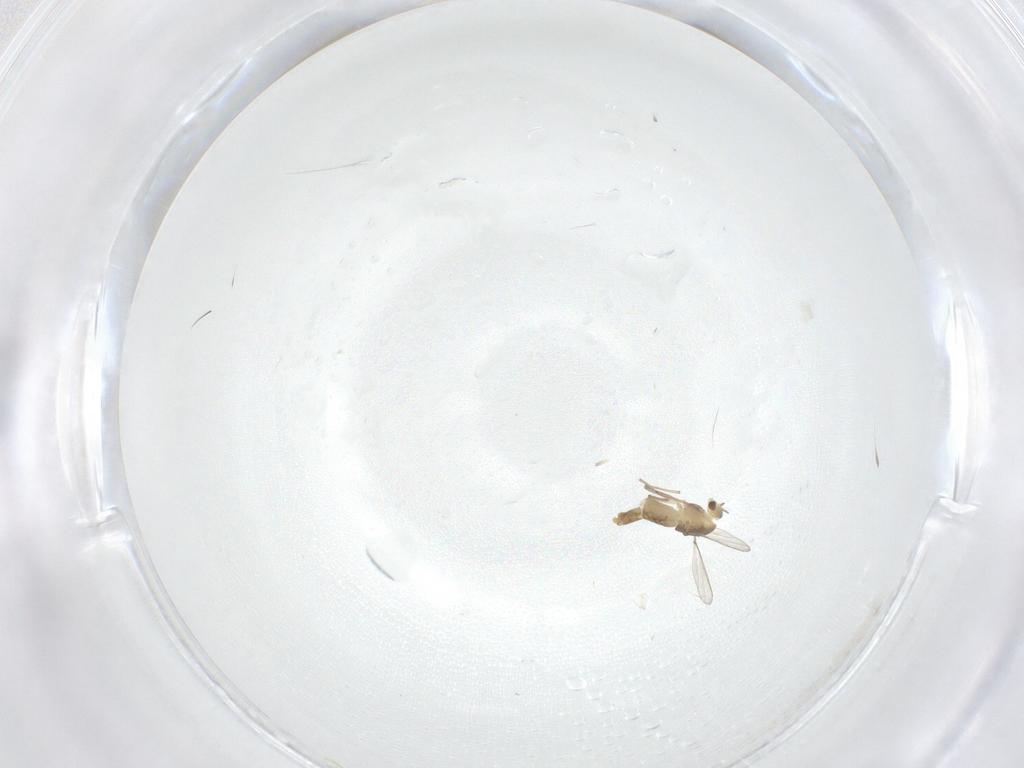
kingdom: Animalia
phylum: Arthropoda
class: Insecta
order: Diptera
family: Chironomidae
